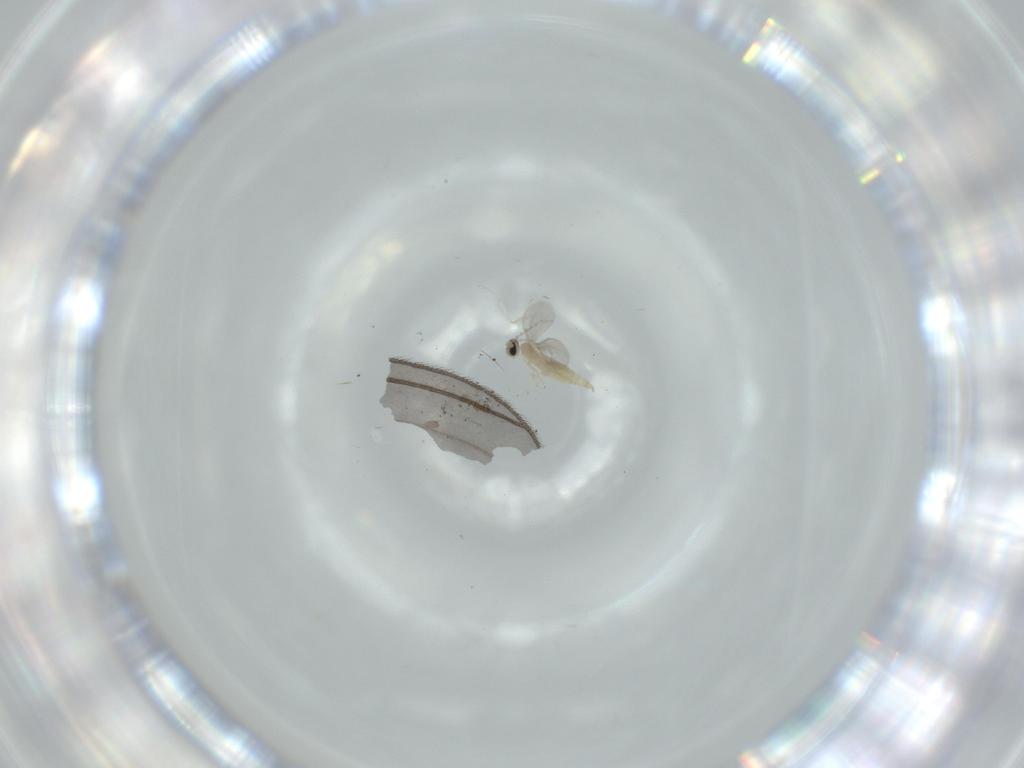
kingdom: Animalia
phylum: Arthropoda
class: Insecta
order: Diptera
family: Cecidomyiidae
